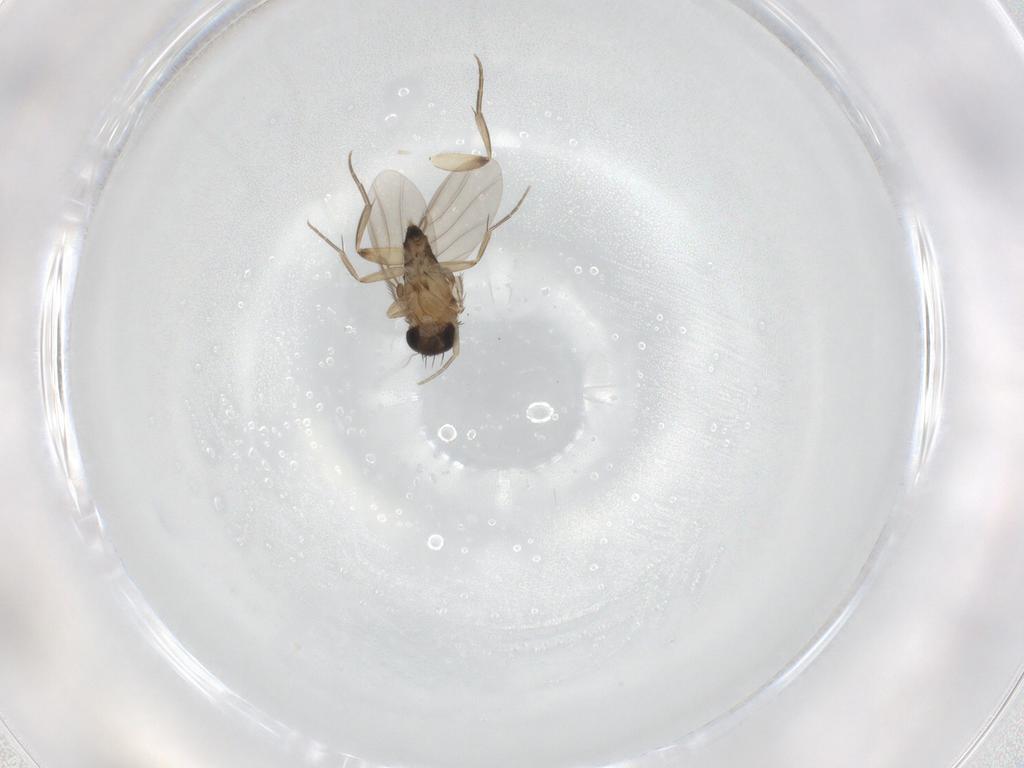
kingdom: Animalia
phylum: Arthropoda
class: Insecta
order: Diptera
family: Phoridae
